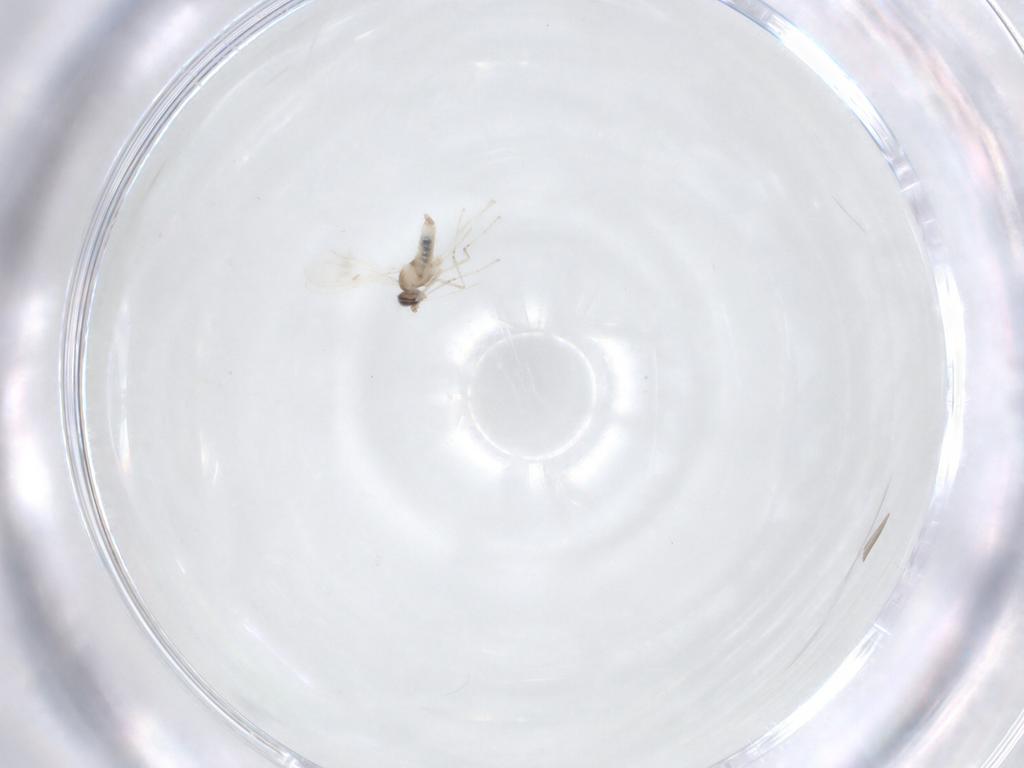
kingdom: Animalia
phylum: Arthropoda
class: Insecta
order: Diptera
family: Cecidomyiidae
